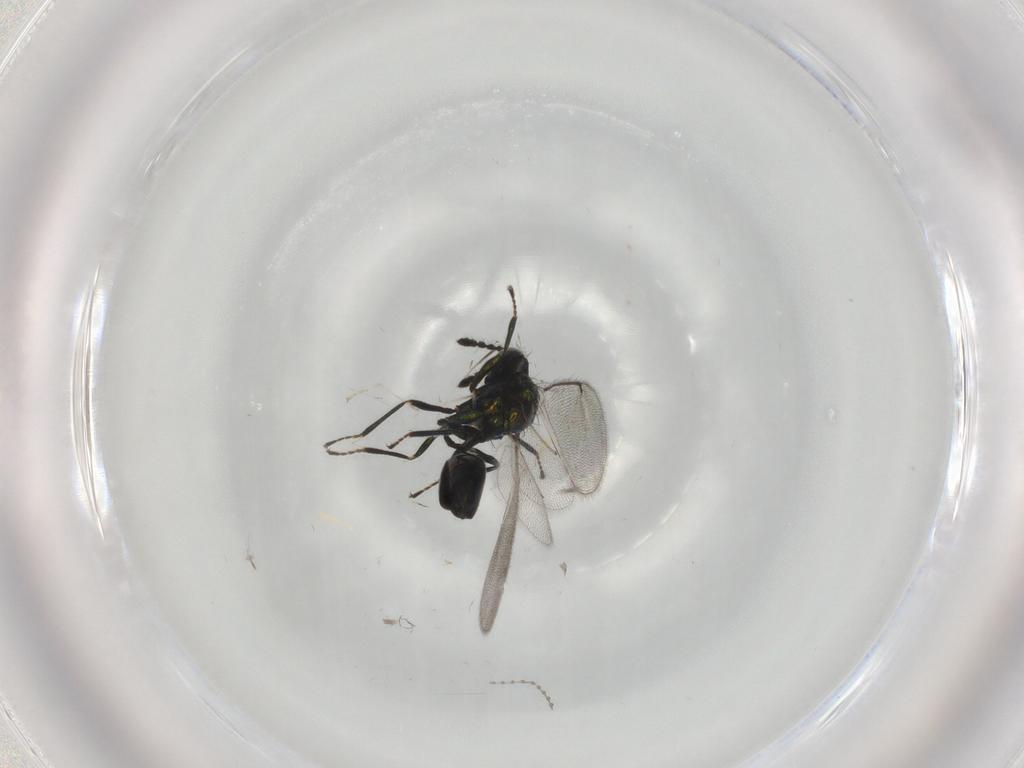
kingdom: Animalia
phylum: Arthropoda
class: Insecta
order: Hymenoptera
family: Eulophidae
